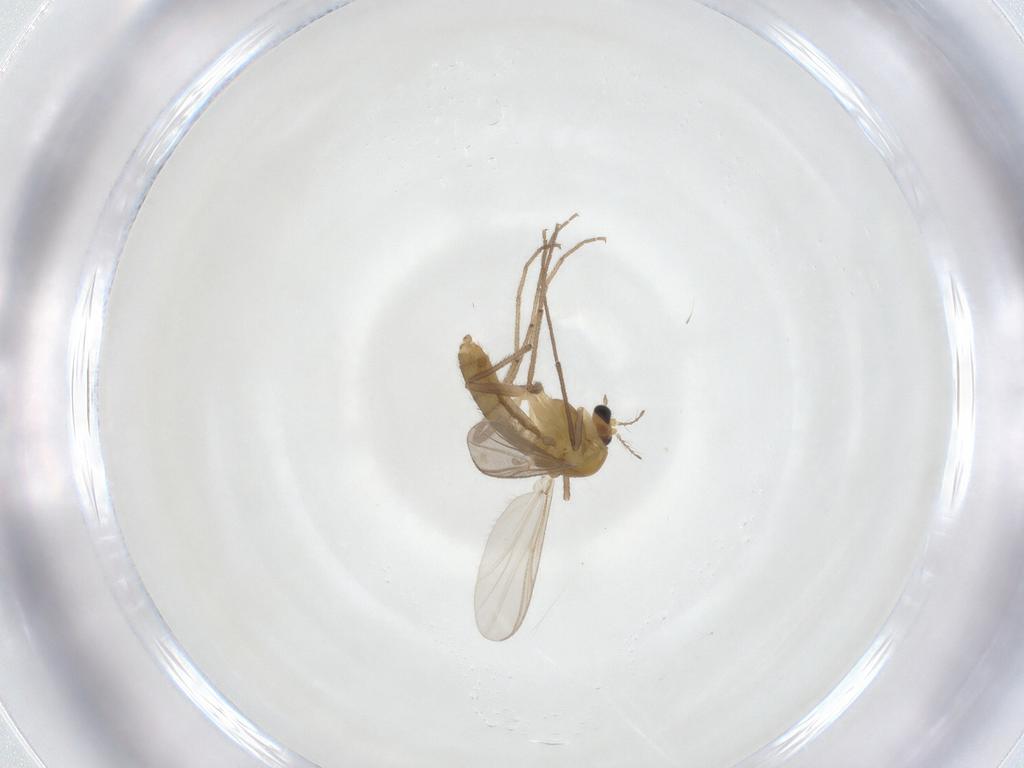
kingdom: Animalia
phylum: Arthropoda
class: Insecta
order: Diptera
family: Chironomidae
